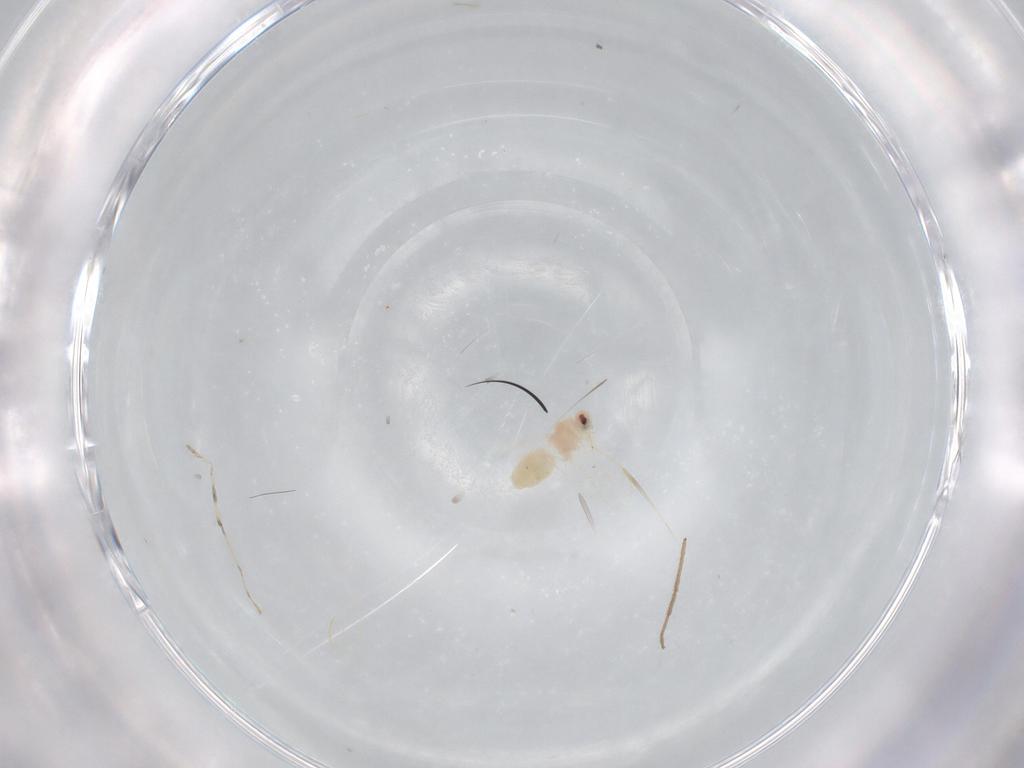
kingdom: Animalia
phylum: Arthropoda
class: Insecta
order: Hemiptera
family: Aleyrodidae
